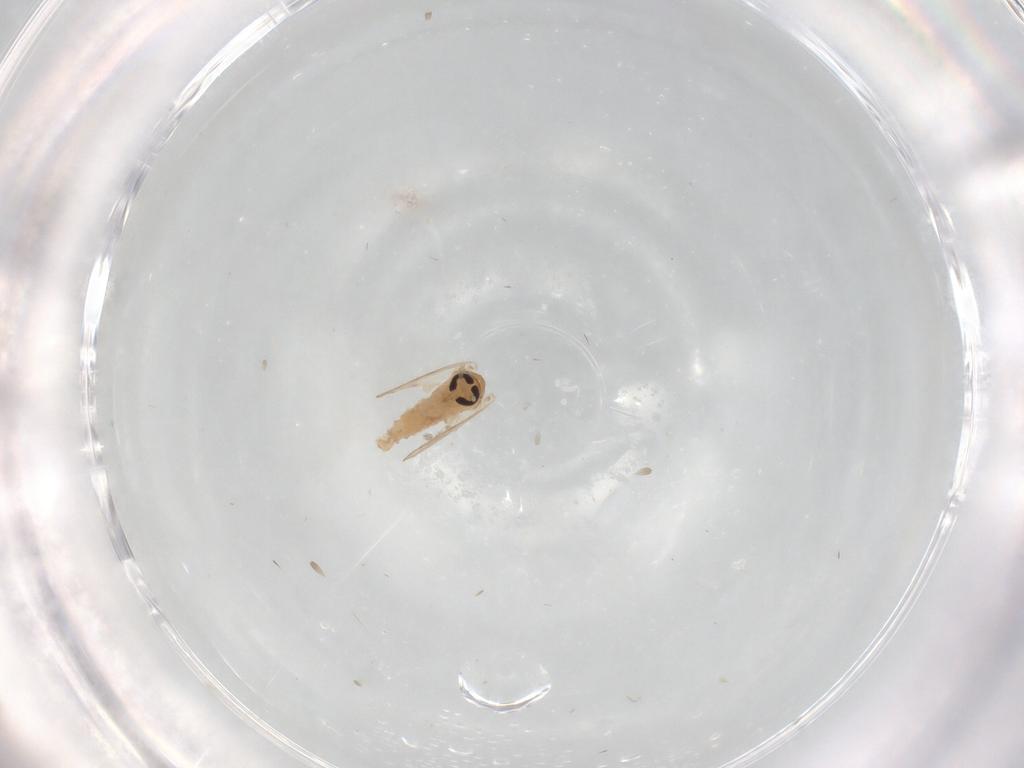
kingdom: Animalia
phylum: Arthropoda
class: Insecta
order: Diptera
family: Psychodidae
